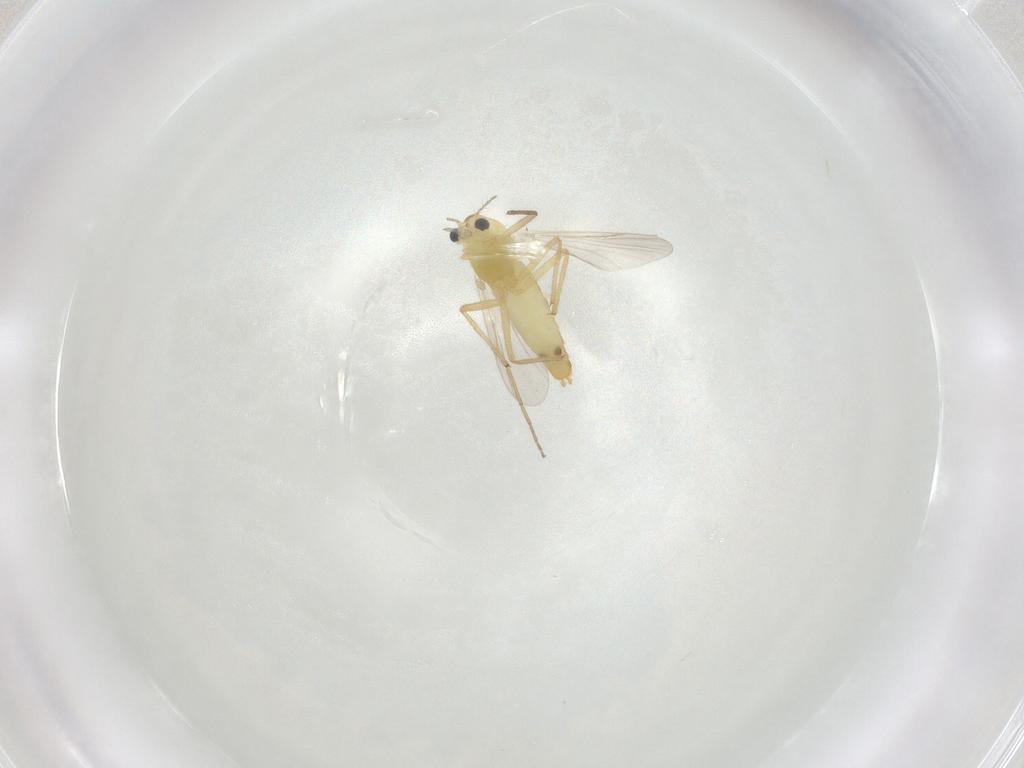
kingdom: Animalia
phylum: Arthropoda
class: Insecta
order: Diptera
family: Chironomidae
